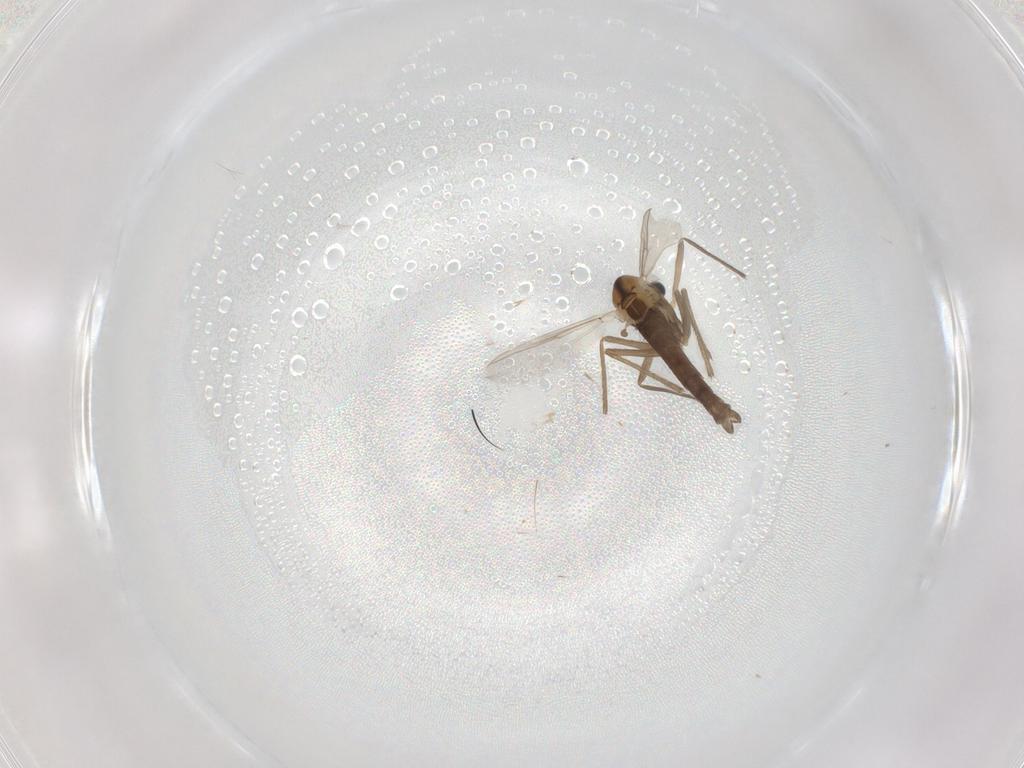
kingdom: Animalia
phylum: Arthropoda
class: Insecta
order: Diptera
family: Chironomidae
